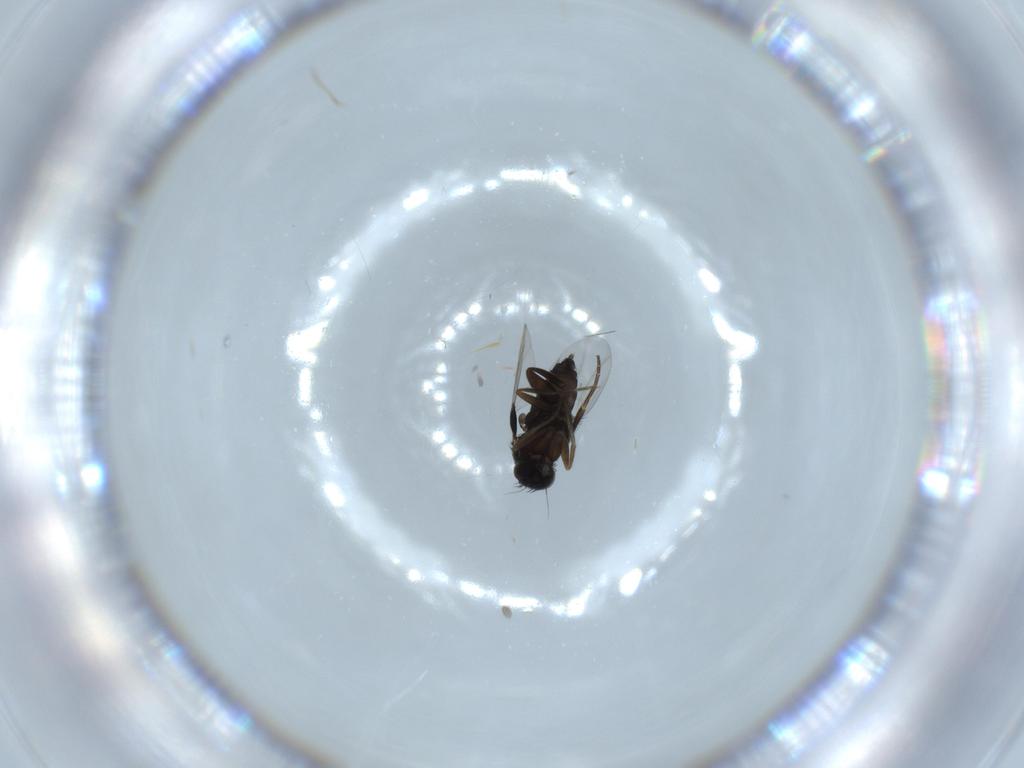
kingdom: Animalia
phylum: Arthropoda
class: Insecta
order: Diptera
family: Phoridae
